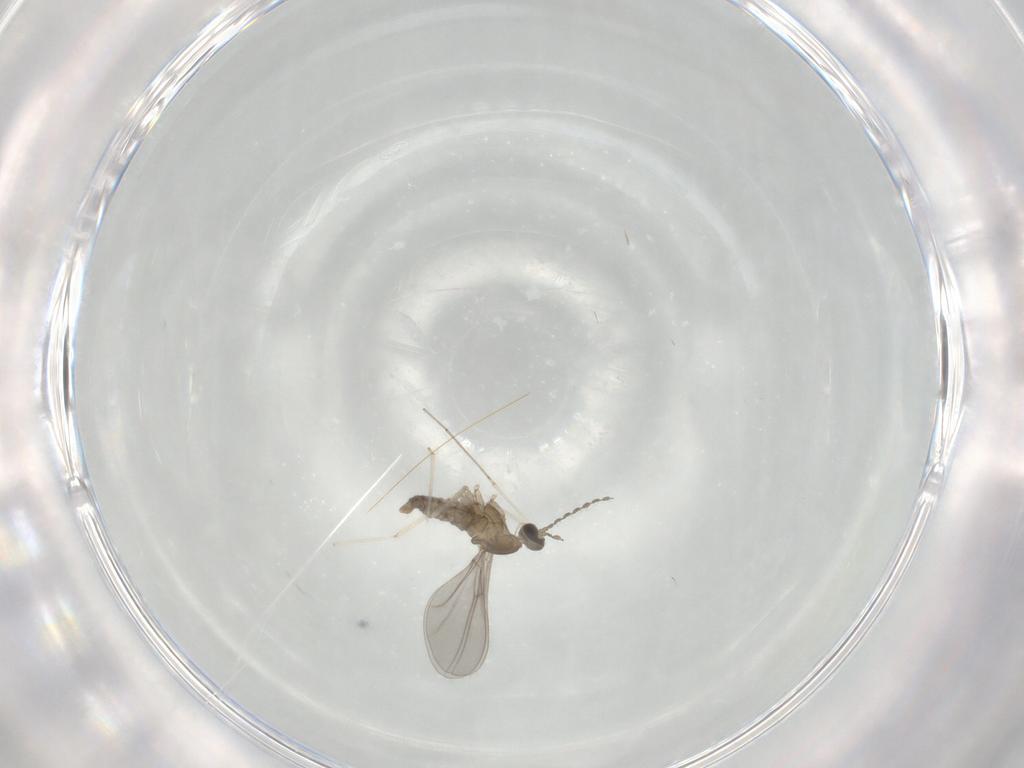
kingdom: Animalia
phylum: Arthropoda
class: Insecta
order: Diptera
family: Cecidomyiidae
